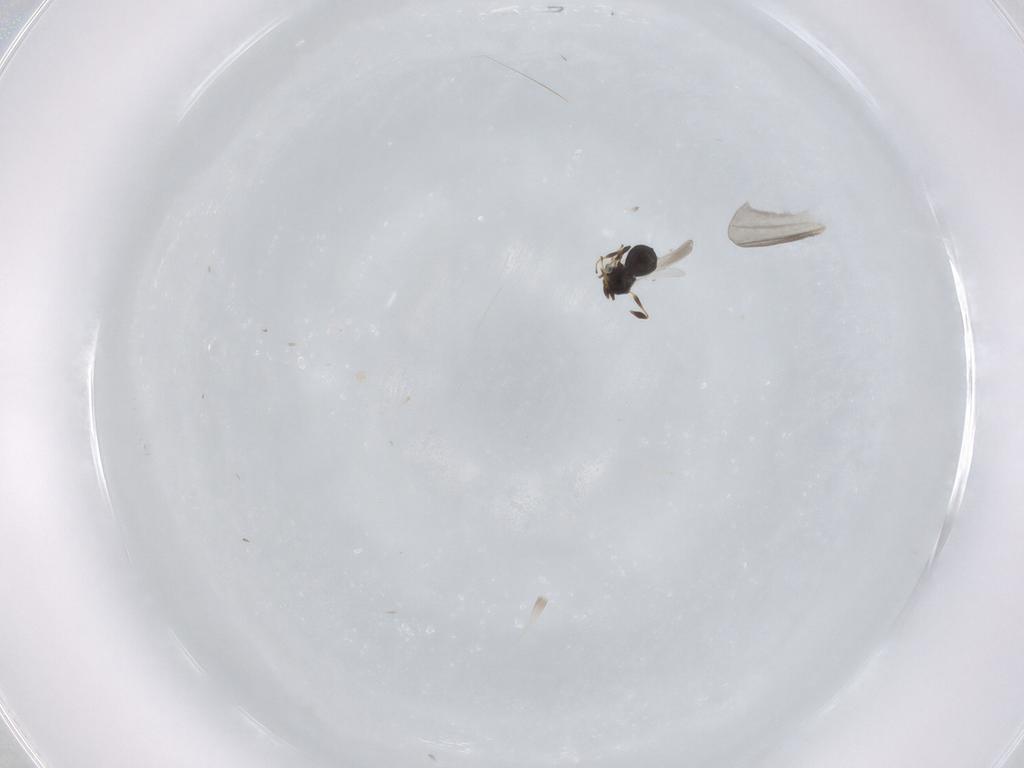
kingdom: Animalia
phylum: Arthropoda
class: Insecta
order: Hymenoptera
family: Platygastridae
